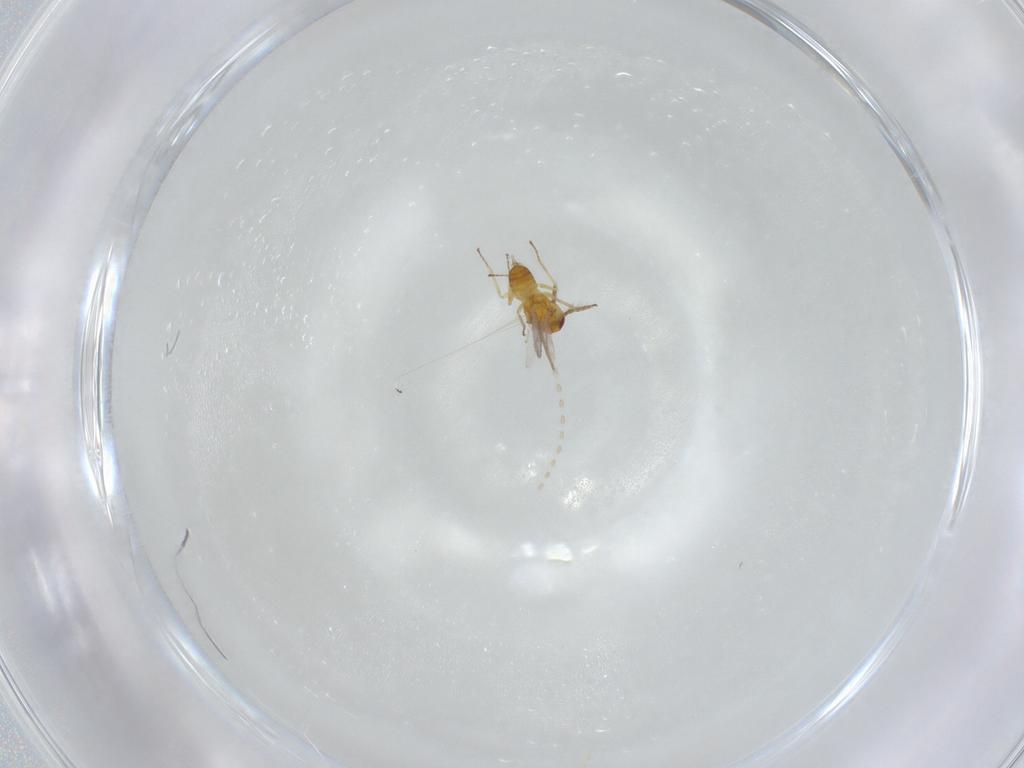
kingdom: Animalia
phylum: Arthropoda
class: Insecta
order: Hymenoptera
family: Eulophidae
